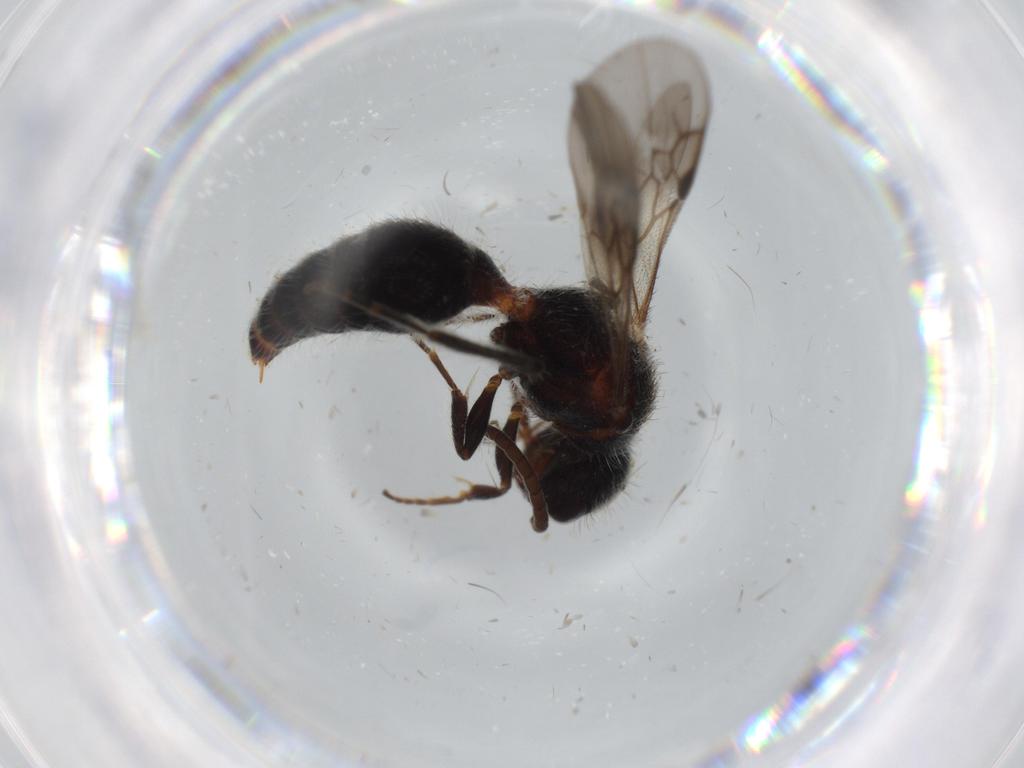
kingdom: Animalia
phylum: Arthropoda
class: Insecta
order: Hymenoptera
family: Mutillidae
